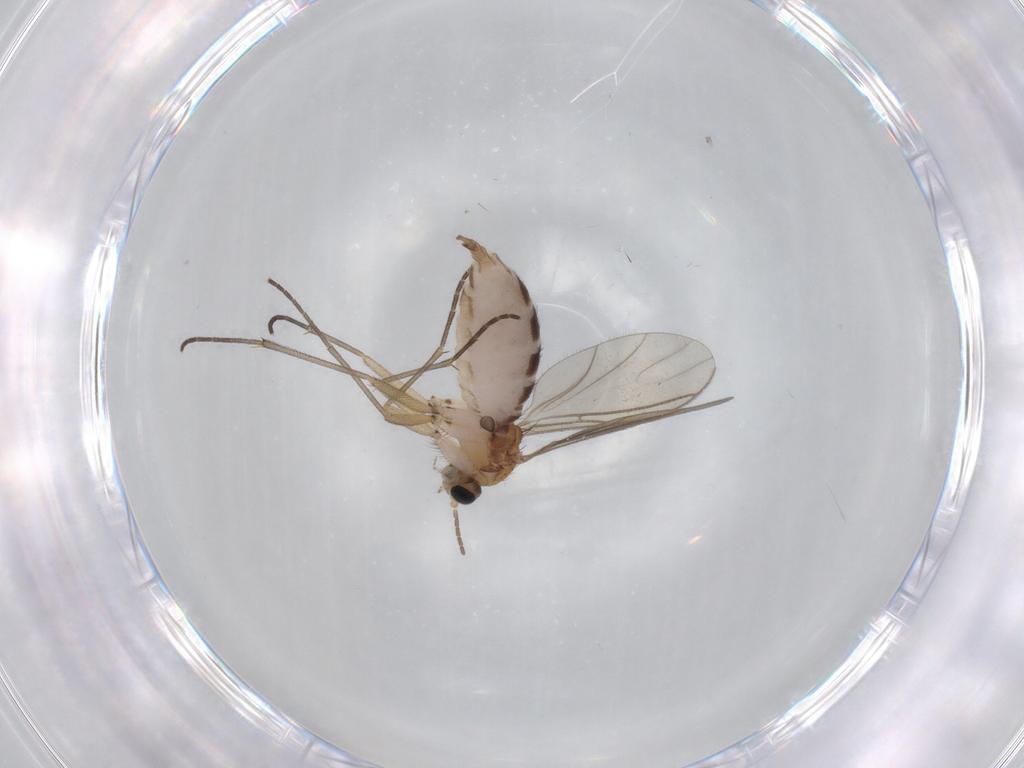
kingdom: Animalia
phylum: Arthropoda
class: Insecta
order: Diptera
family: Sciaridae
